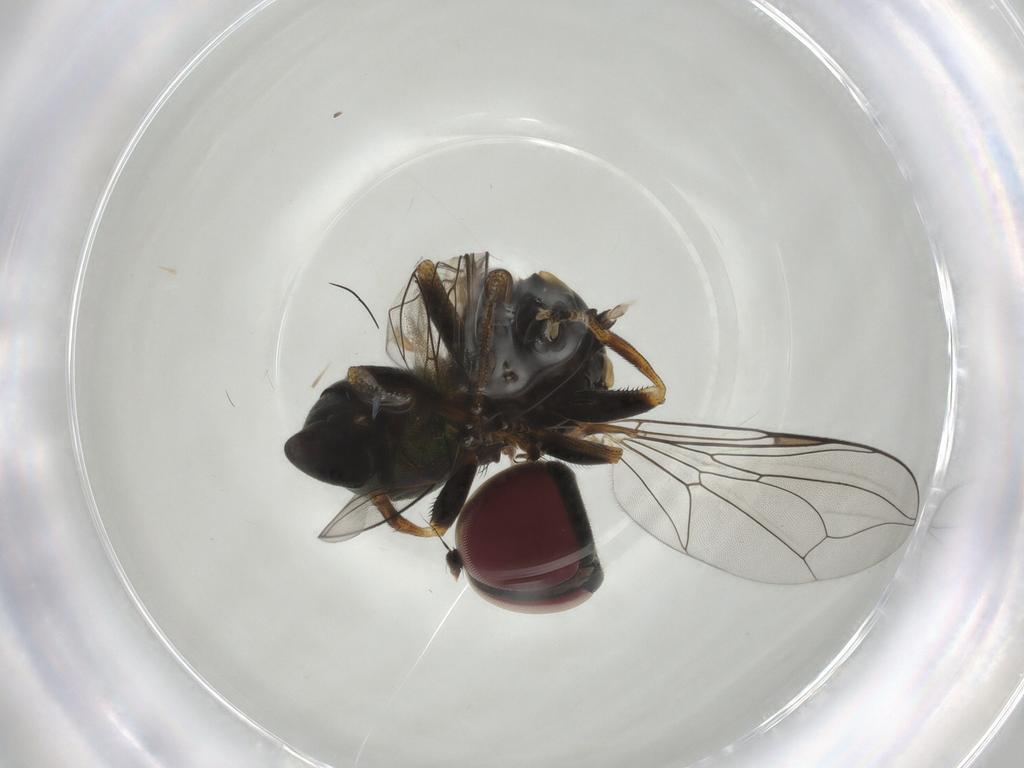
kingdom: Animalia
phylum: Arthropoda
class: Insecta
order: Diptera
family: Pipunculidae
